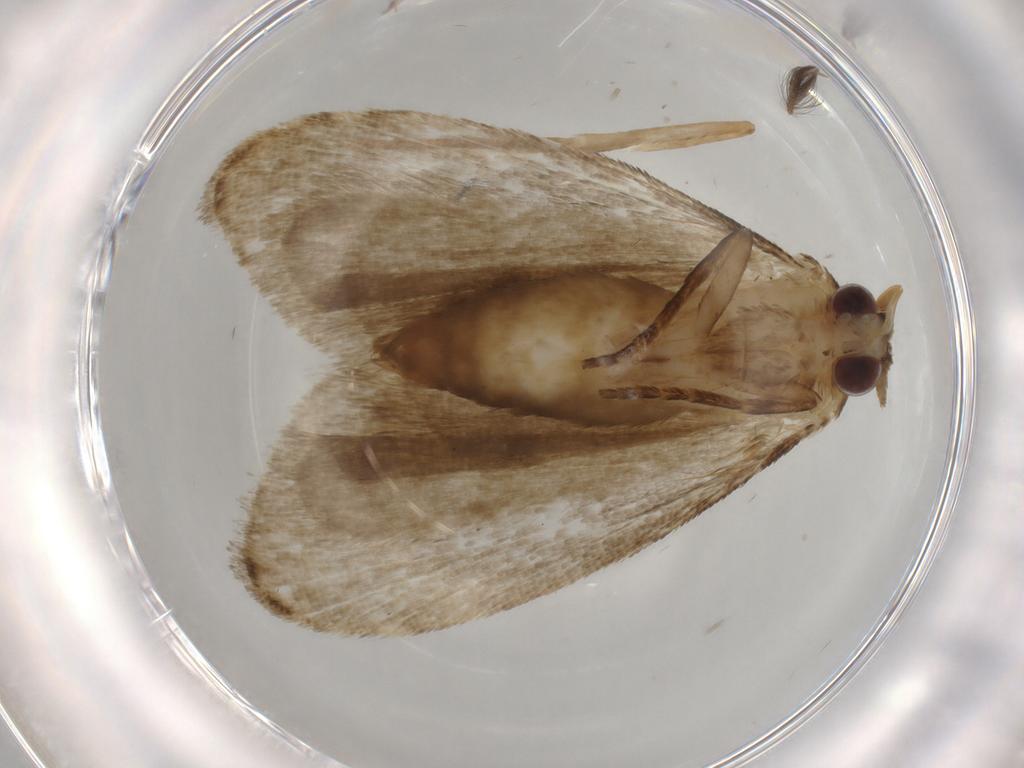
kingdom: Animalia
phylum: Arthropoda
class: Insecta
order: Lepidoptera
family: Erebidae
